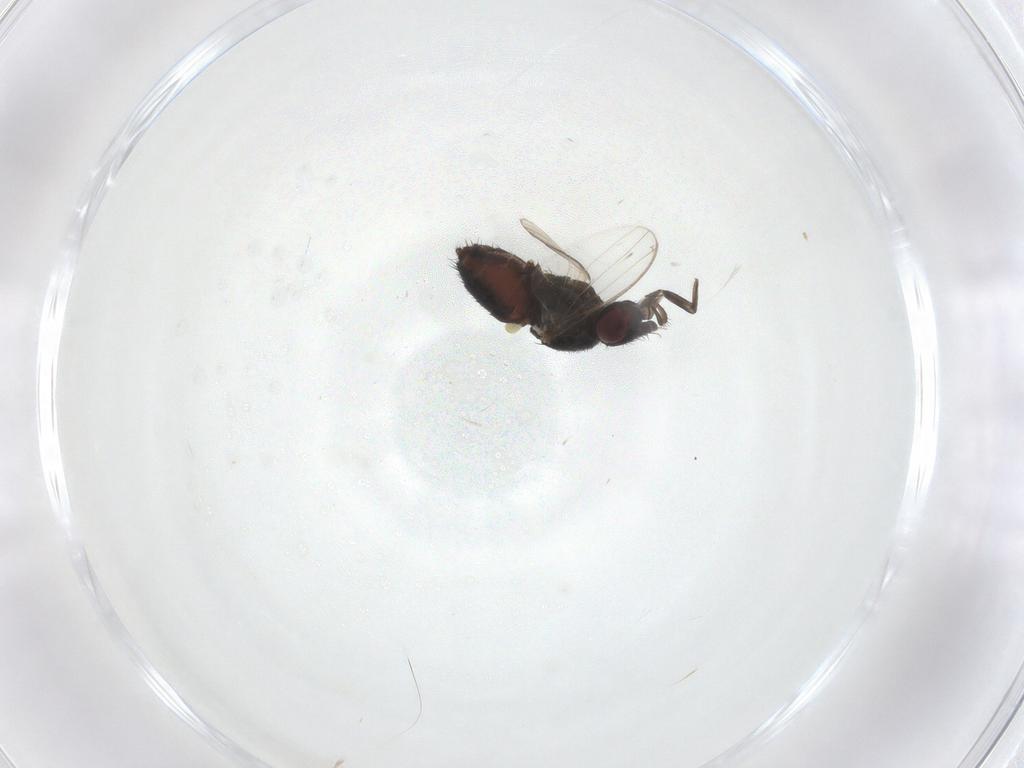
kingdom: Animalia
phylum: Arthropoda
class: Insecta
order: Diptera
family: Milichiidae
